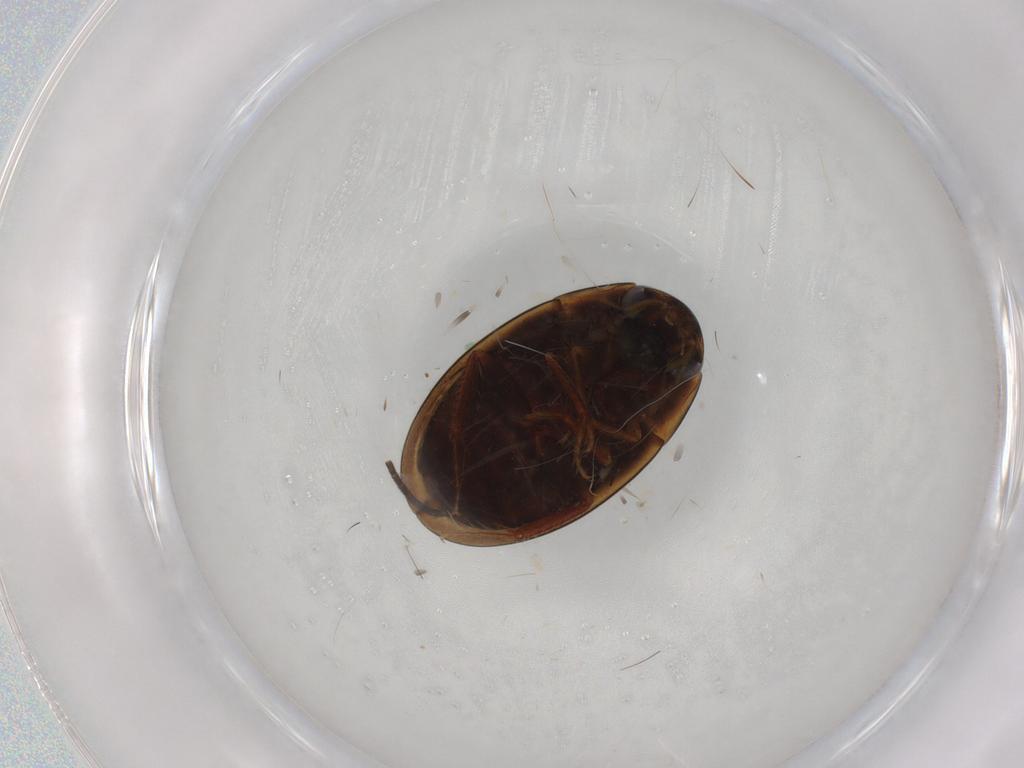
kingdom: Animalia
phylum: Arthropoda
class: Insecta
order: Coleoptera
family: Hydrophilidae
